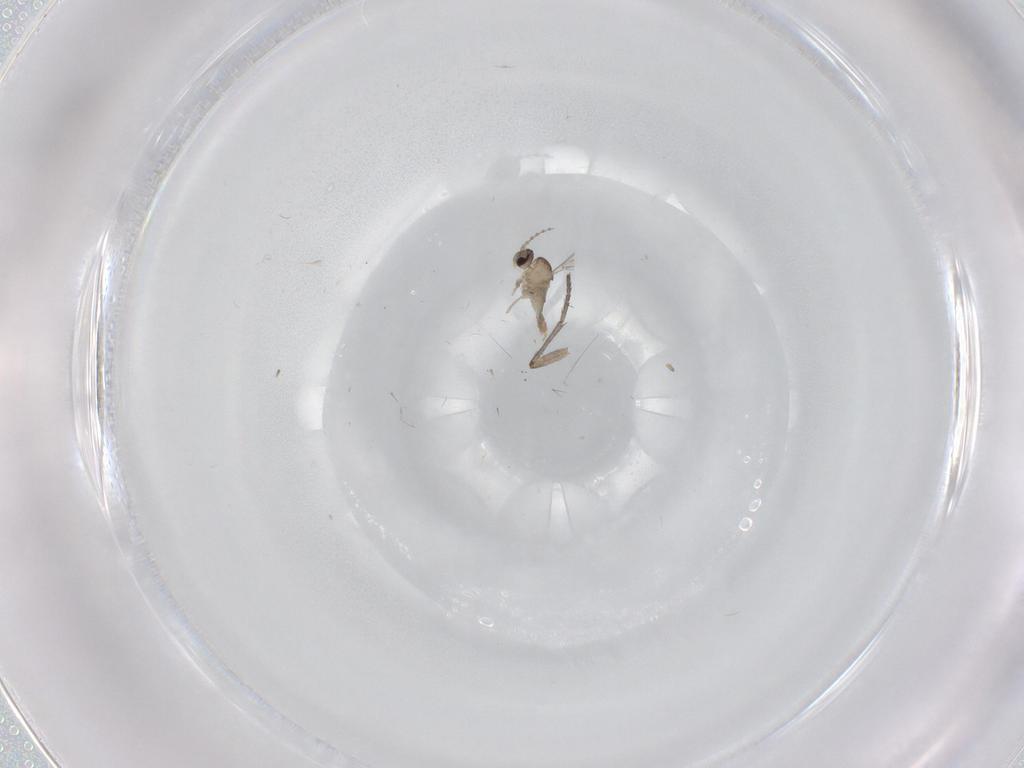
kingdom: Animalia
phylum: Arthropoda
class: Insecta
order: Diptera
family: Cecidomyiidae
